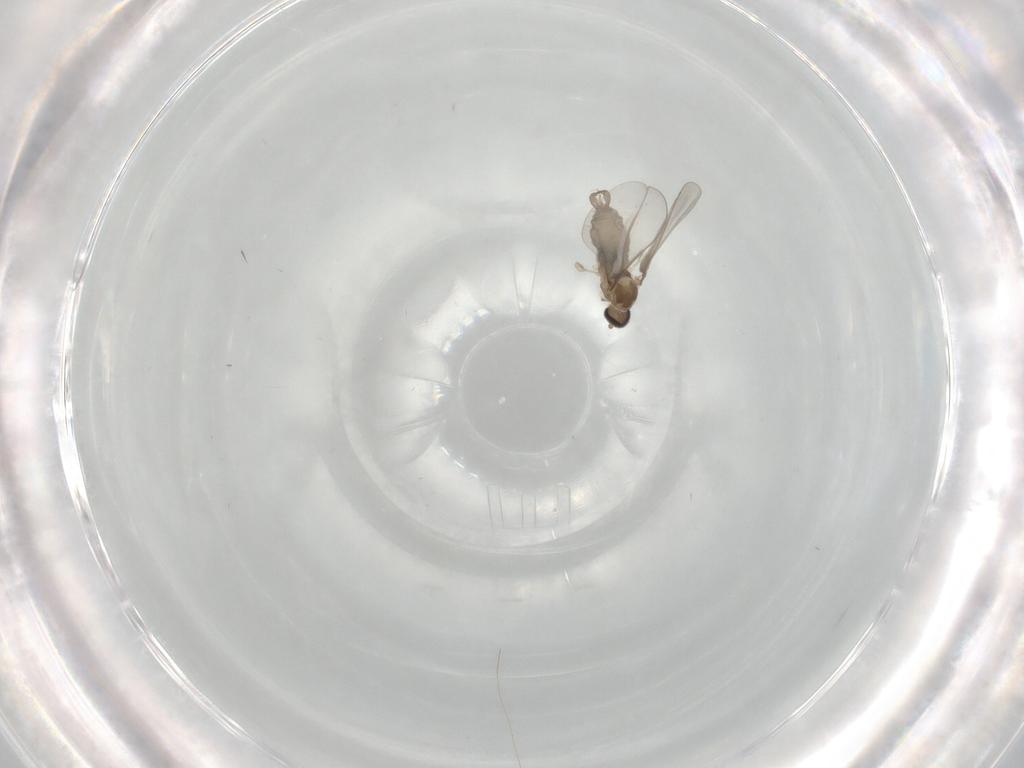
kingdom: Animalia
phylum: Arthropoda
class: Insecta
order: Diptera
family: Cecidomyiidae
